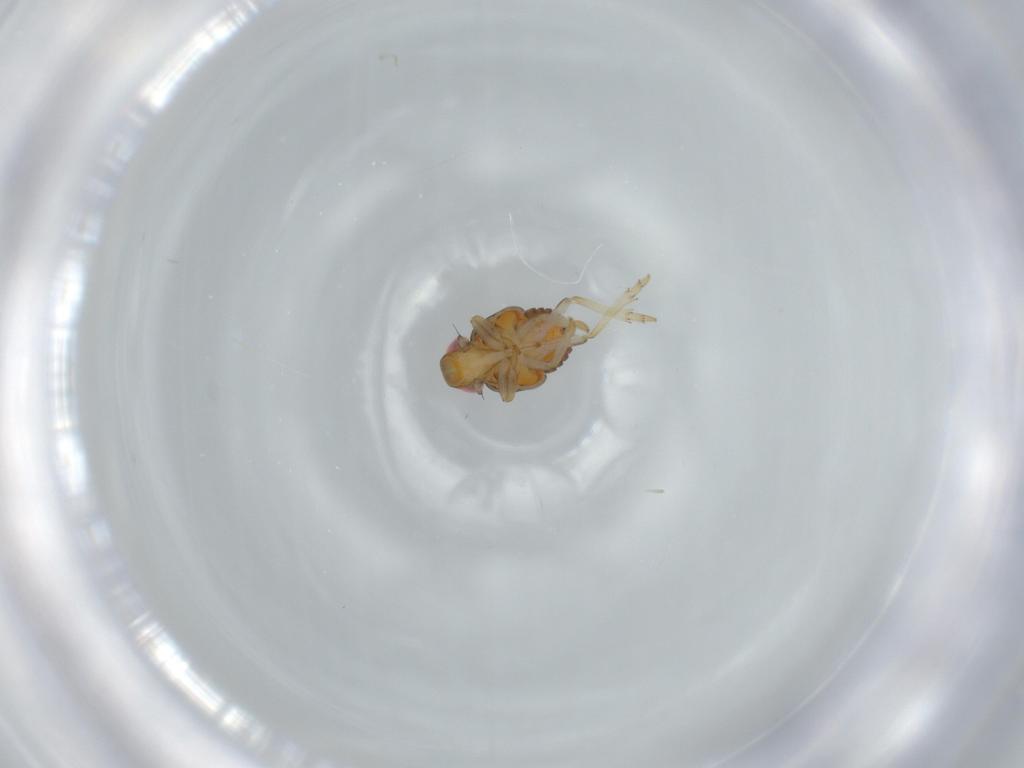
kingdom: Animalia
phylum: Arthropoda
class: Insecta
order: Hemiptera
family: Issidae
